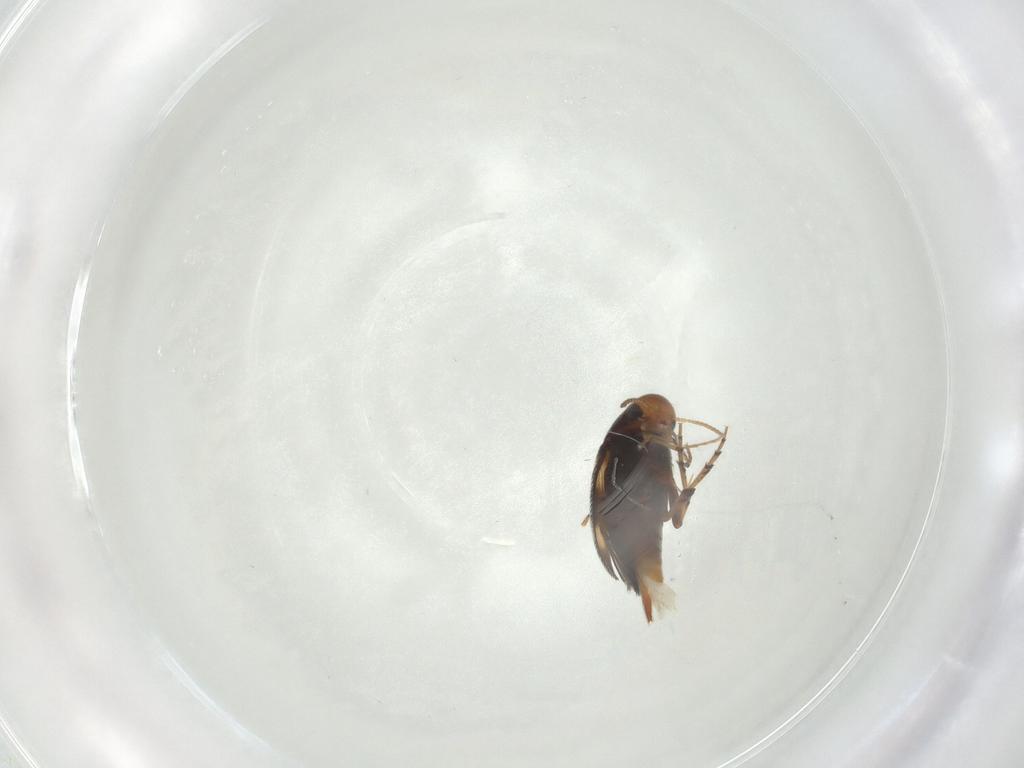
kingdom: Animalia
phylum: Arthropoda
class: Insecta
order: Coleoptera
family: Mordellidae
